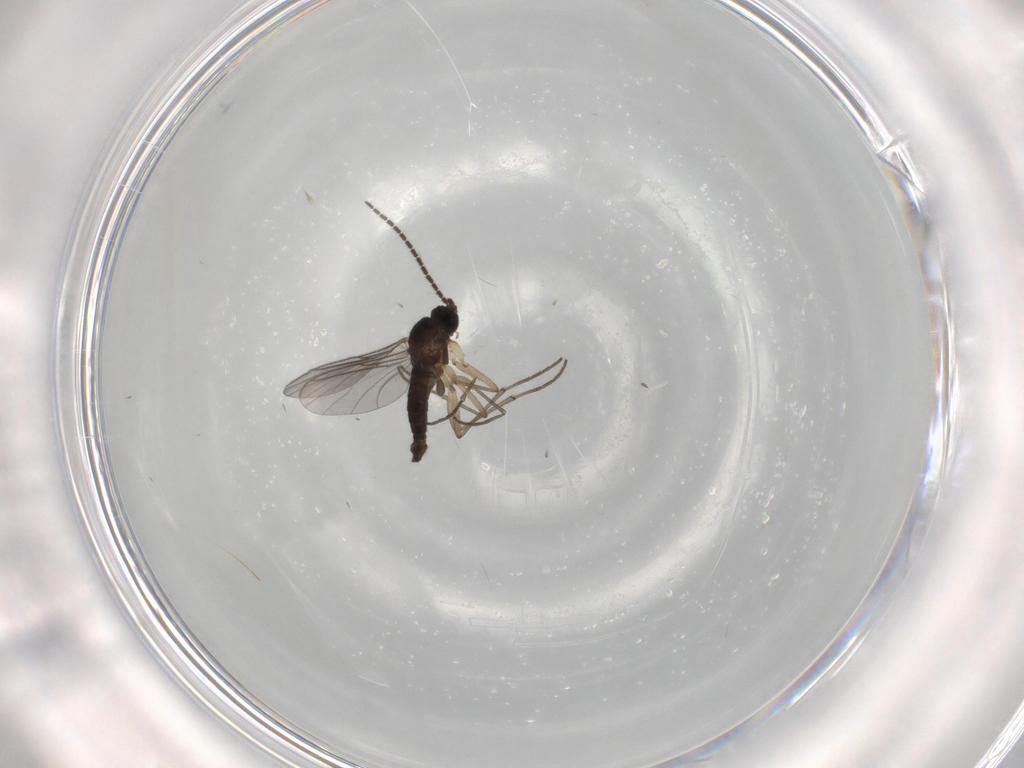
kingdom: Animalia
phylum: Arthropoda
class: Insecta
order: Diptera
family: Sciaridae
